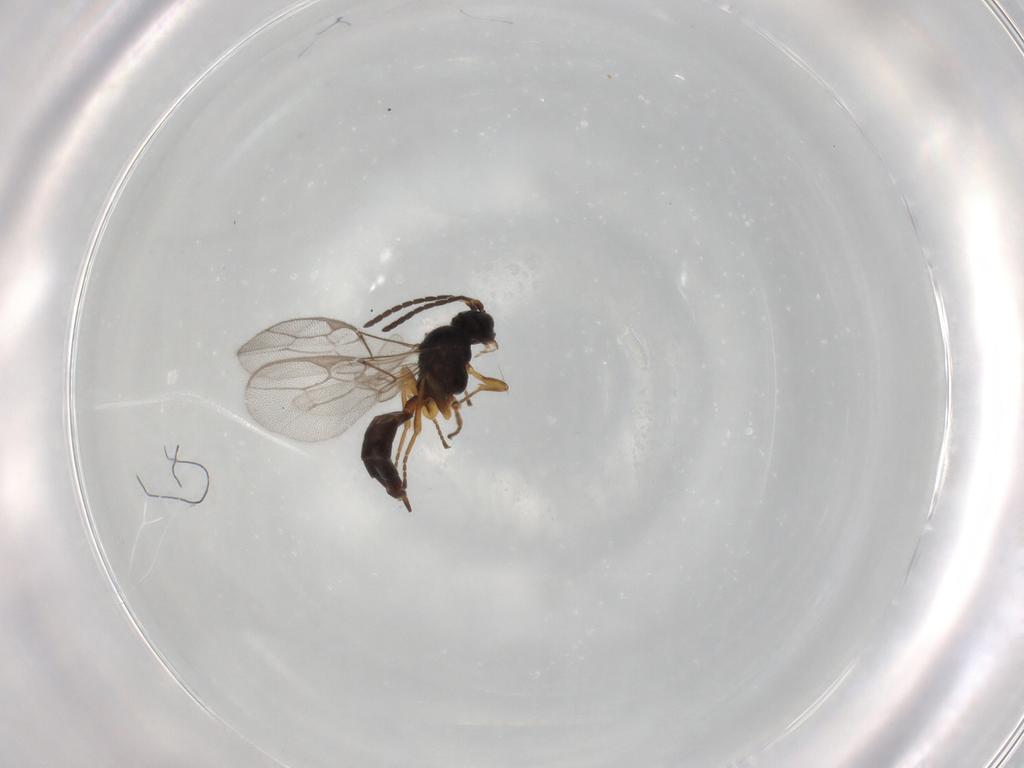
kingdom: Animalia
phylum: Arthropoda
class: Insecta
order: Hymenoptera
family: Braconidae
